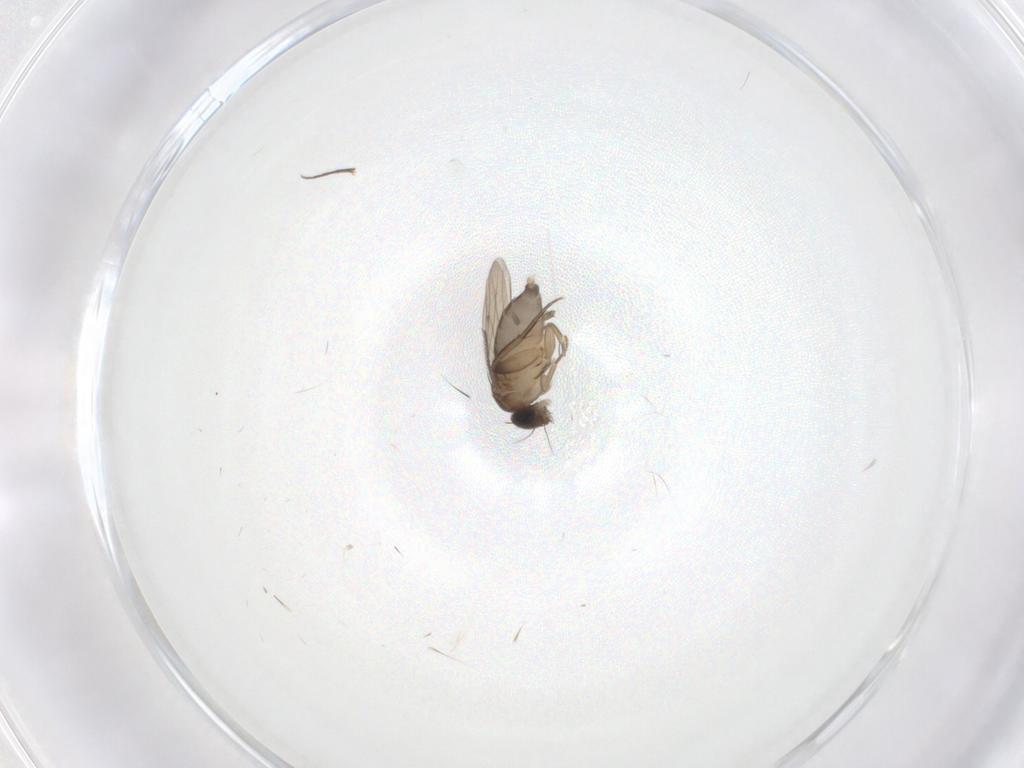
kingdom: Animalia
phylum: Arthropoda
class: Insecta
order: Diptera
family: Phoridae
